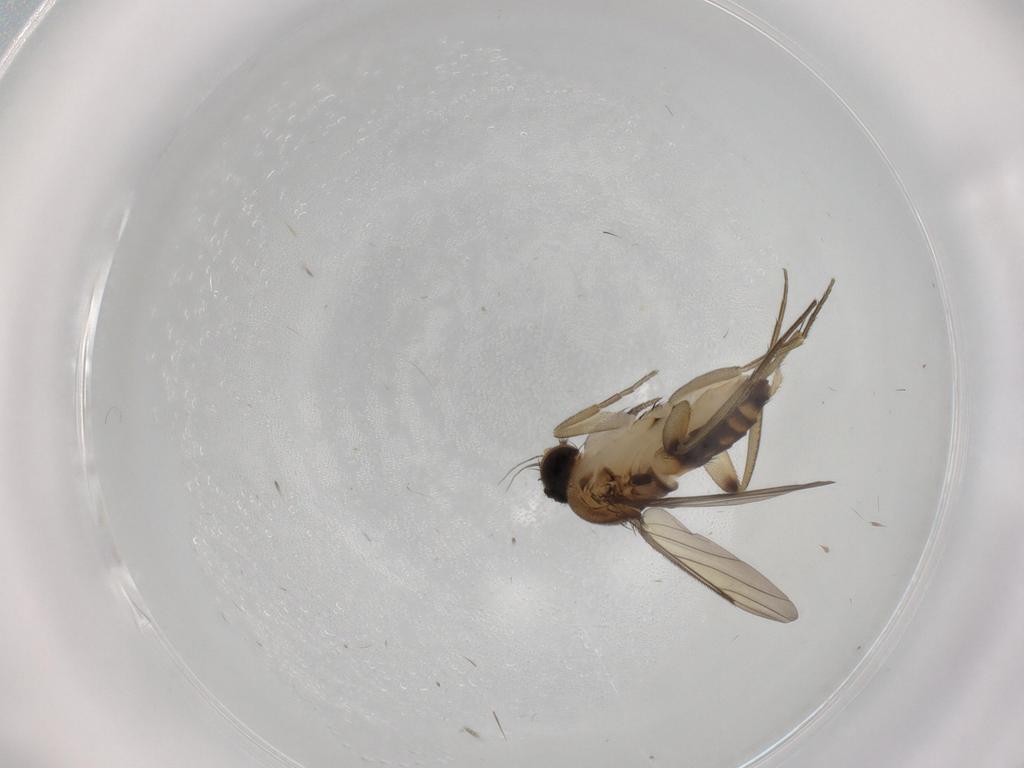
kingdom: Animalia
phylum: Arthropoda
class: Insecta
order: Diptera
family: Phoridae
